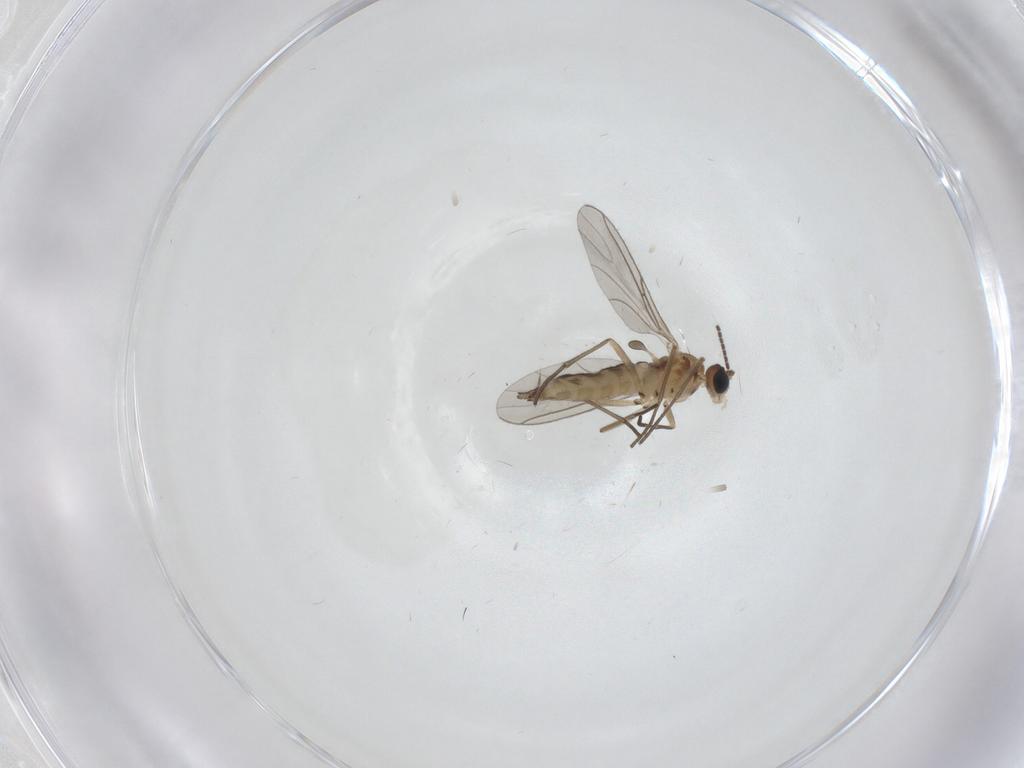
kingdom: Animalia
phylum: Arthropoda
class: Insecta
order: Diptera
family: Sciaridae
